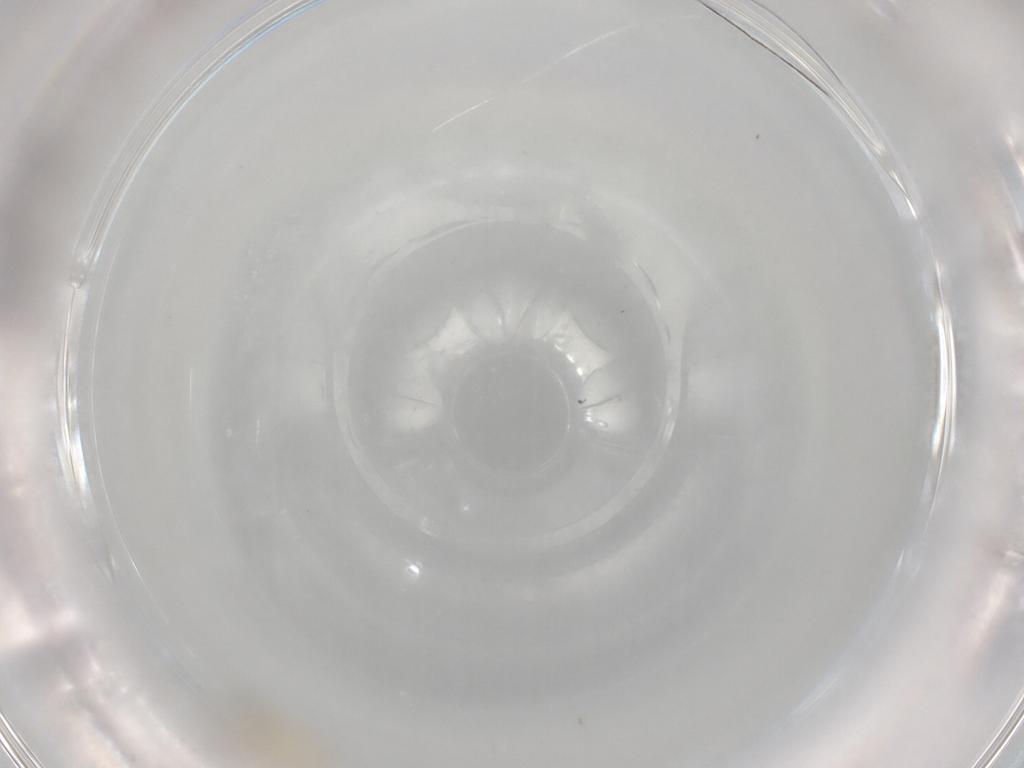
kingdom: Animalia
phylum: Arthropoda
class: Insecta
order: Diptera
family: Cecidomyiidae
